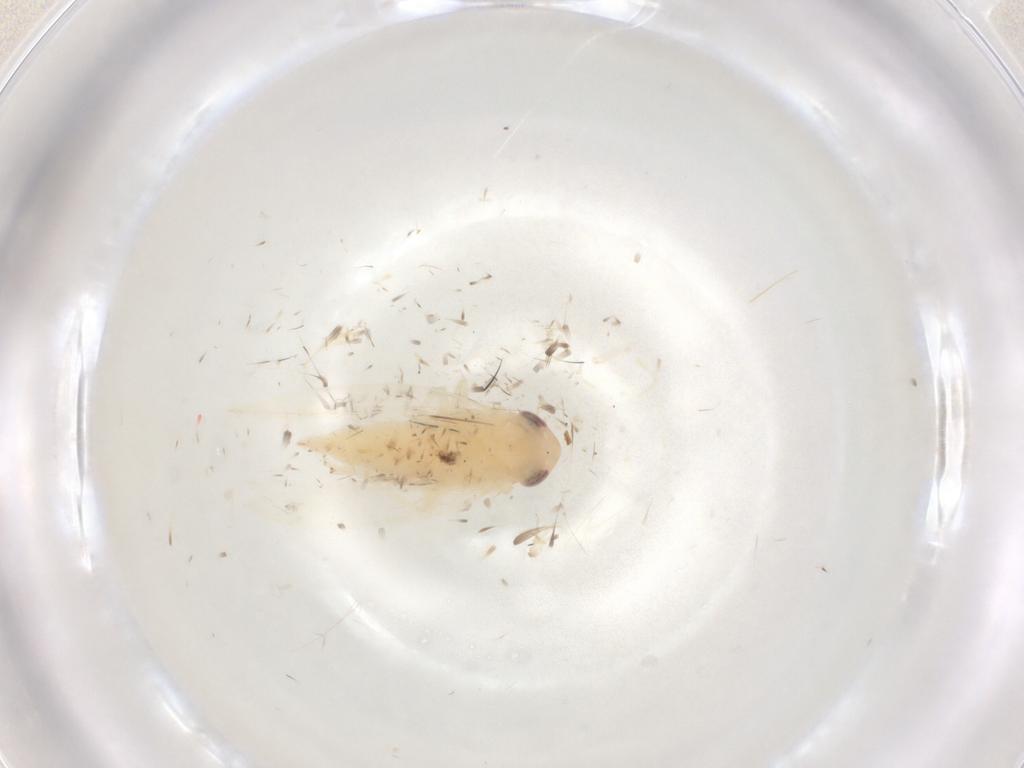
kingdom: Animalia
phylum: Arthropoda
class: Insecta
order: Hemiptera
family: Cicadellidae
